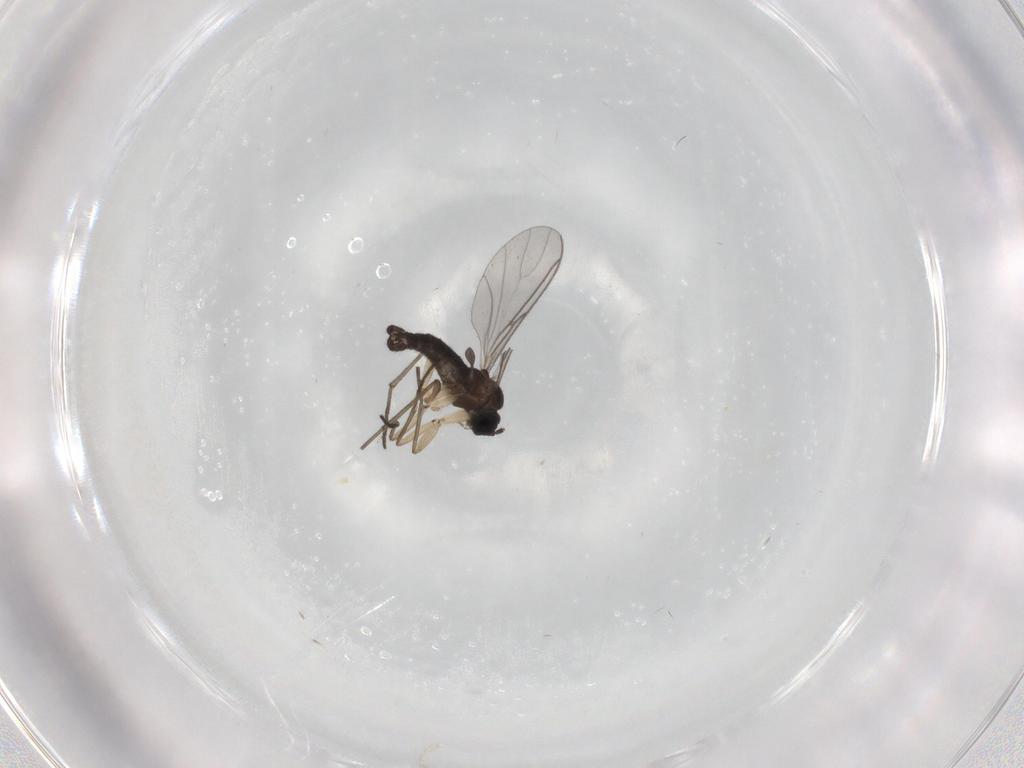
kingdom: Animalia
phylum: Arthropoda
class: Insecta
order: Diptera
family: Sciaridae
